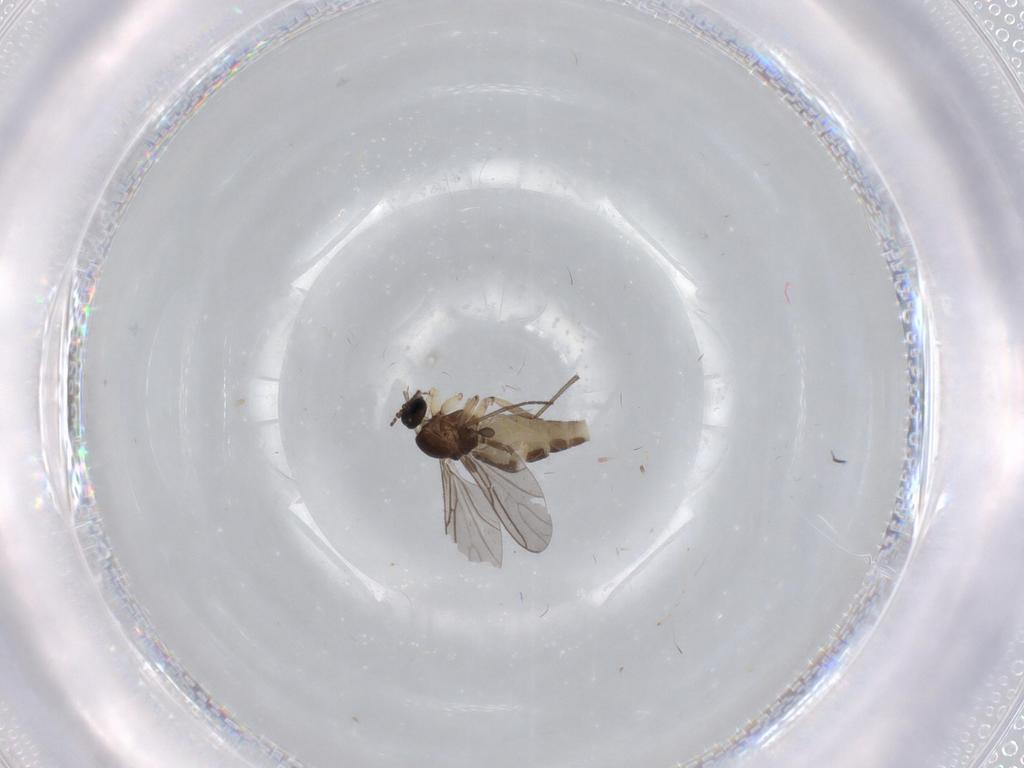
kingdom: Animalia
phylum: Arthropoda
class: Insecta
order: Diptera
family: Sciaridae
